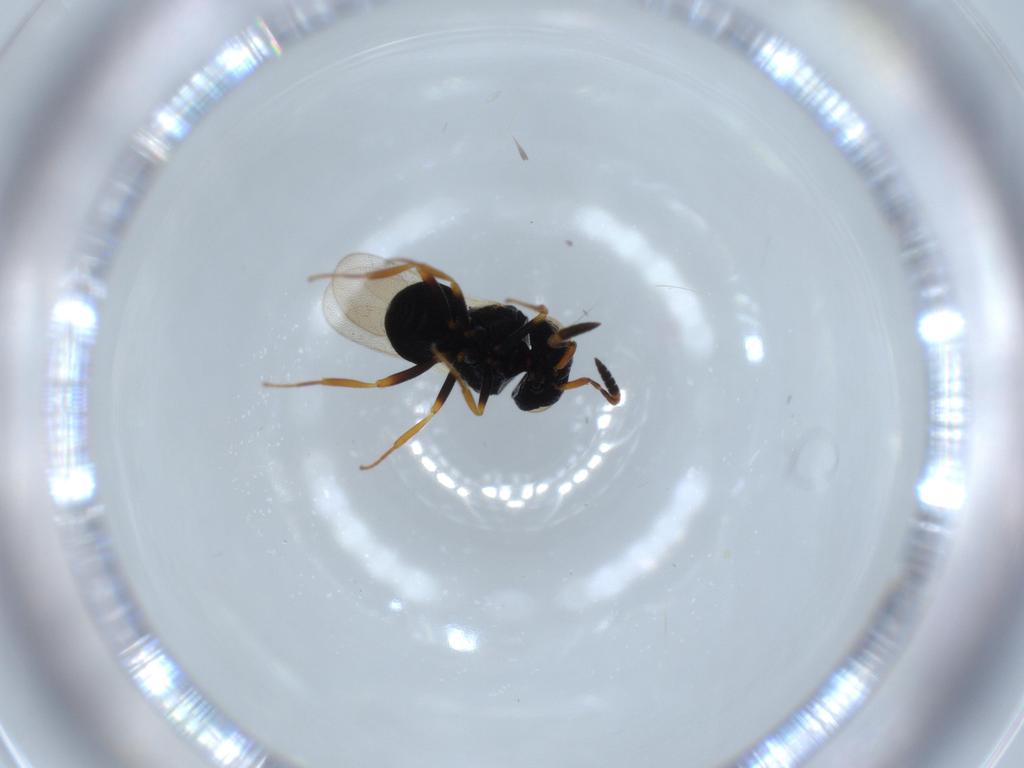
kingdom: Animalia
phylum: Arthropoda
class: Insecta
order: Hymenoptera
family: Scelionidae
